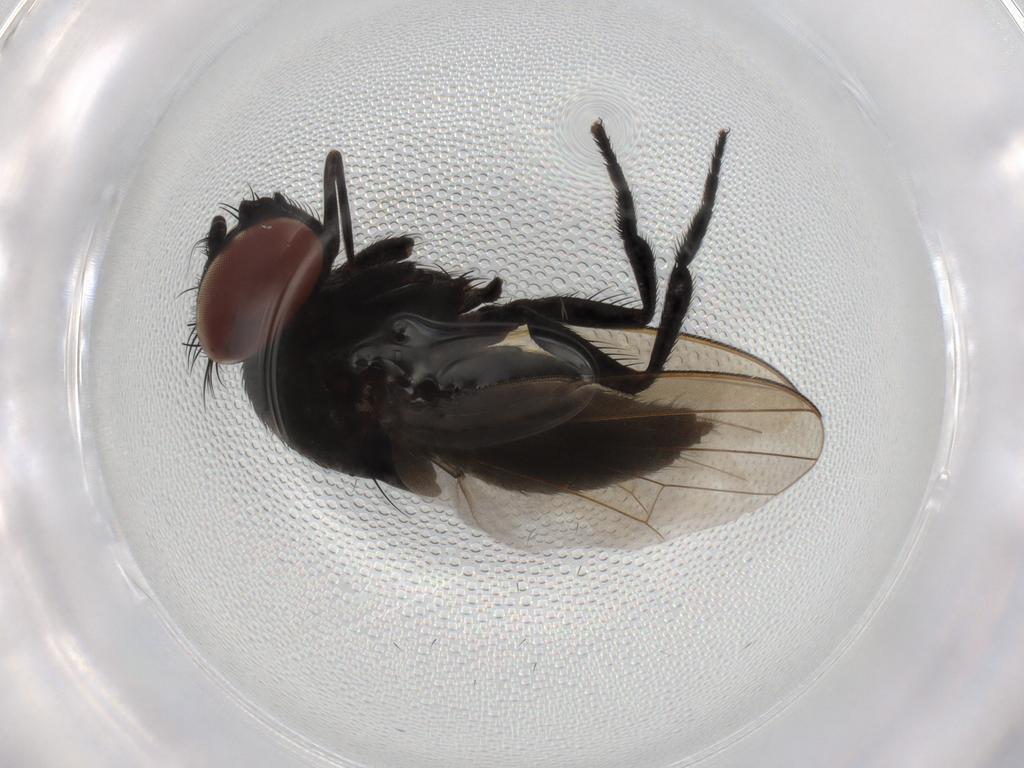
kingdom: Animalia
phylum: Arthropoda
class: Insecta
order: Diptera
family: Milichiidae
